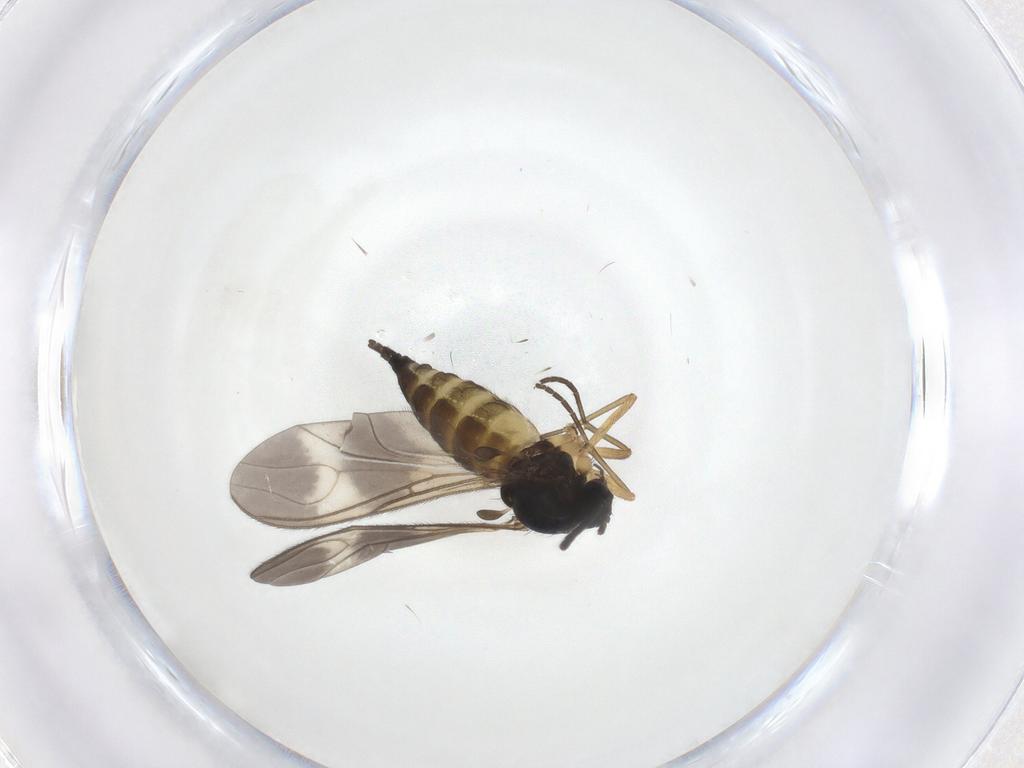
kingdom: Animalia
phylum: Arthropoda
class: Insecta
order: Diptera
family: Sciaridae
